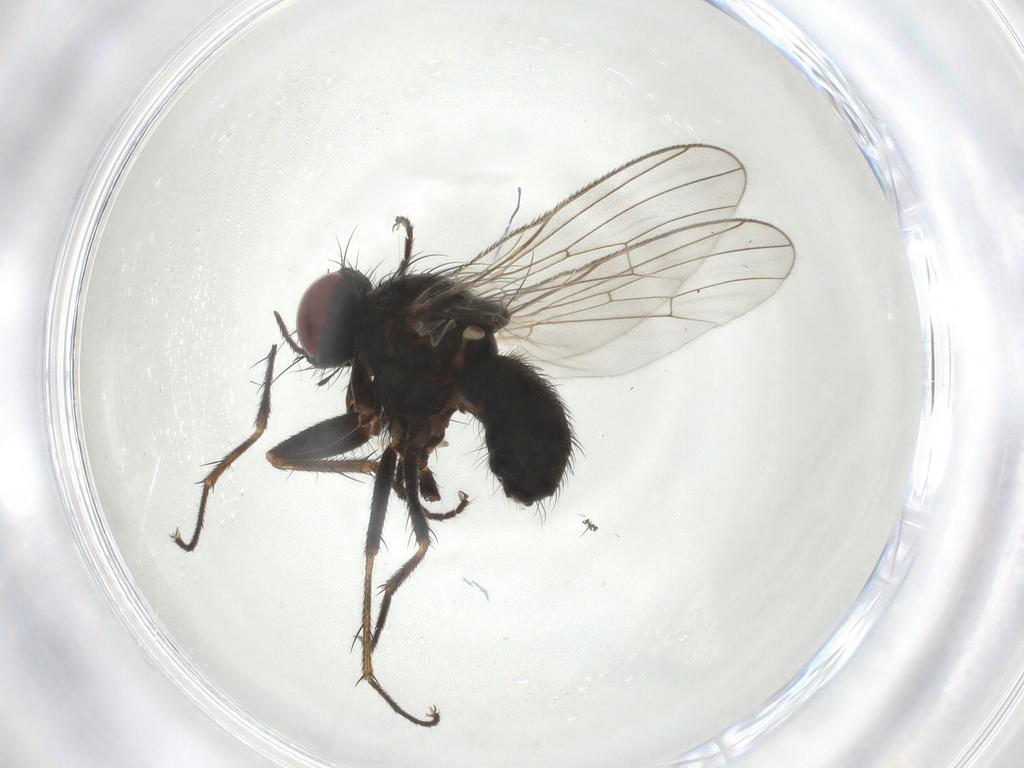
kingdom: Animalia
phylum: Arthropoda
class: Insecta
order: Diptera
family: Muscidae
